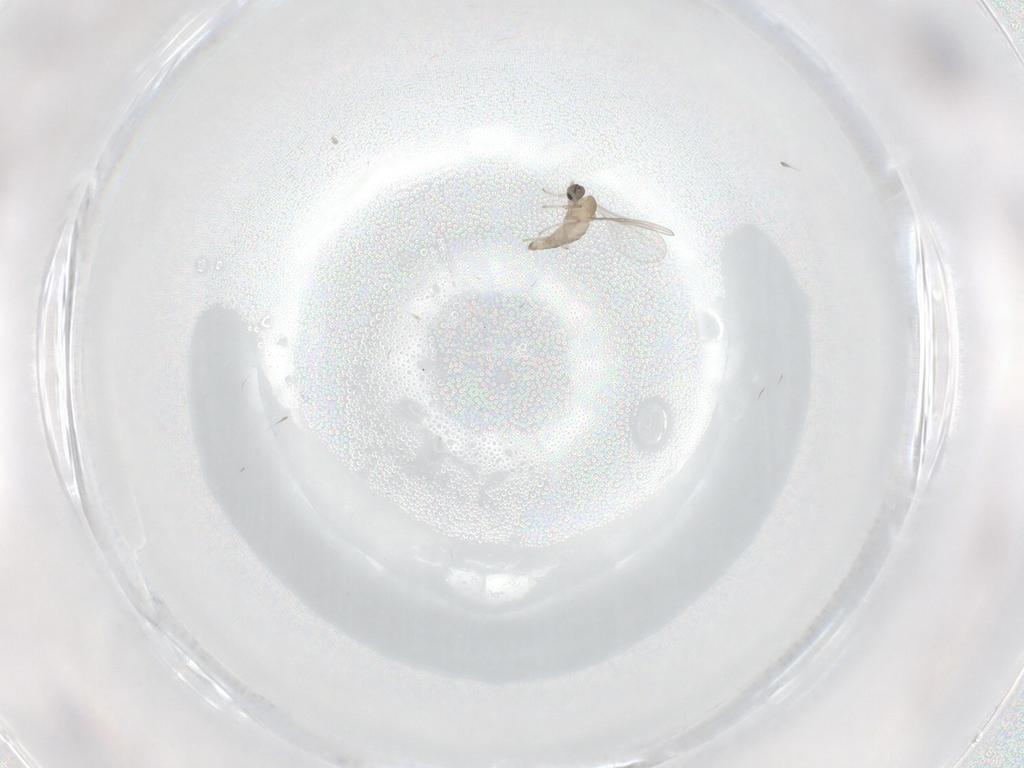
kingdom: Animalia
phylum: Arthropoda
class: Insecta
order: Diptera
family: Cecidomyiidae
